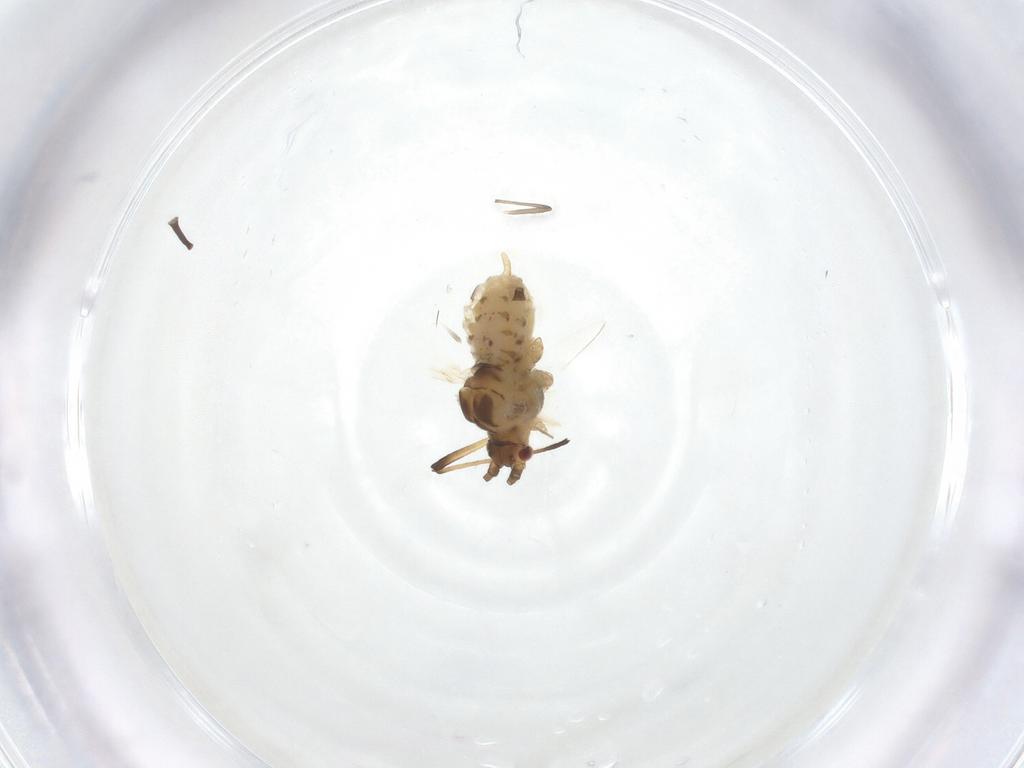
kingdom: Animalia
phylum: Arthropoda
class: Insecta
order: Hemiptera
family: Aphididae
